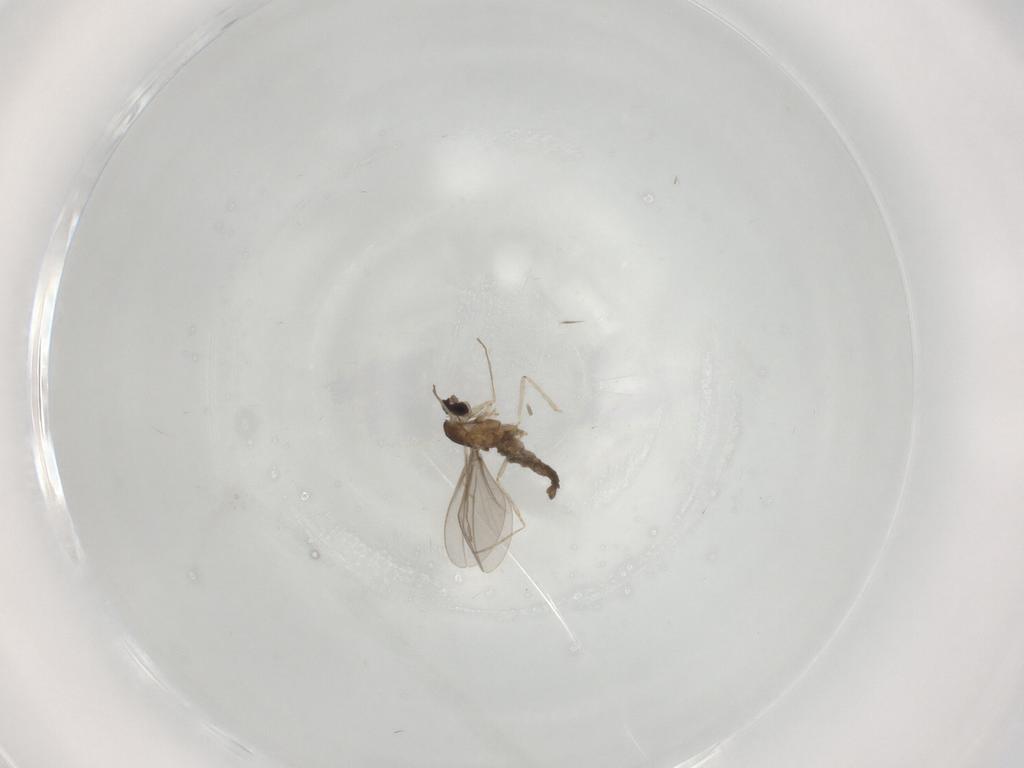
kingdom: Animalia
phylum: Arthropoda
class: Insecta
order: Diptera
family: Cecidomyiidae
